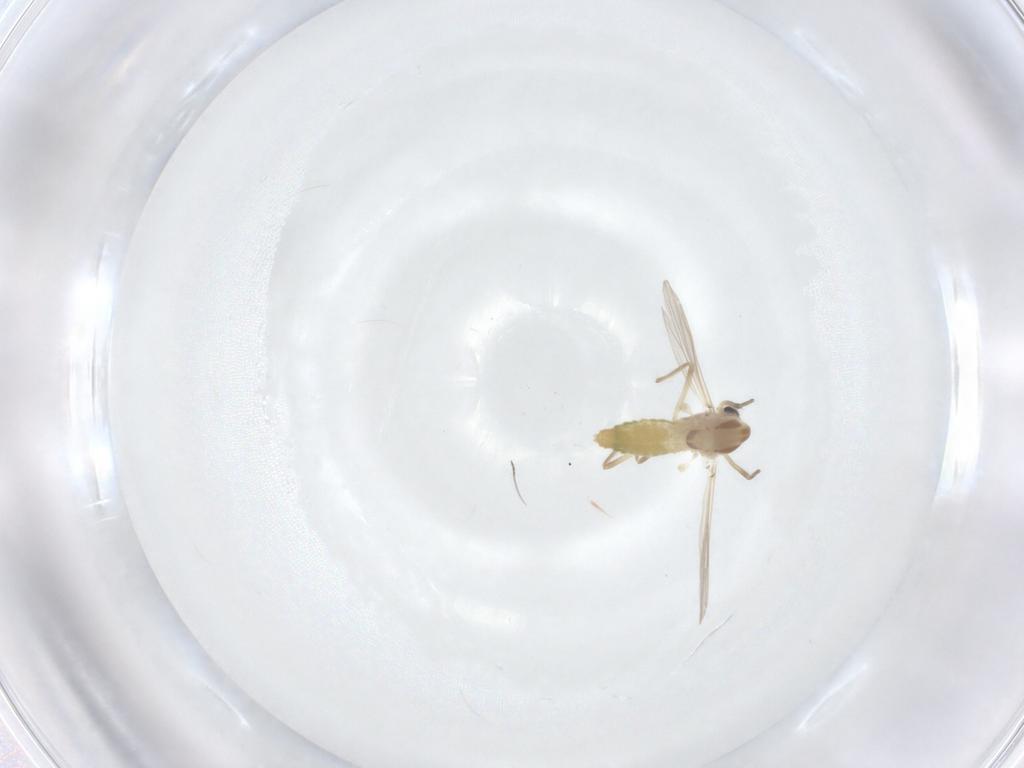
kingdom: Animalia
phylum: Arthropoda
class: Insecta
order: Diptera
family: Chironomidae
